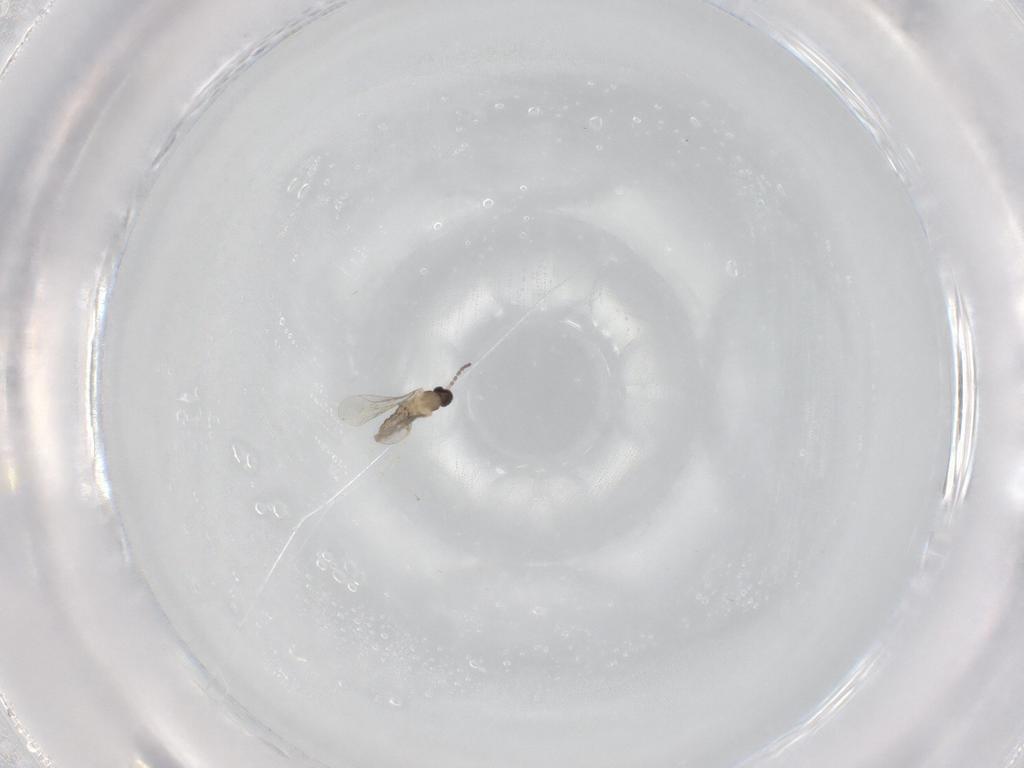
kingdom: Animalia
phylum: Arthropoda
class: Insecta
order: Diptera
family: Cecidomyiidae
